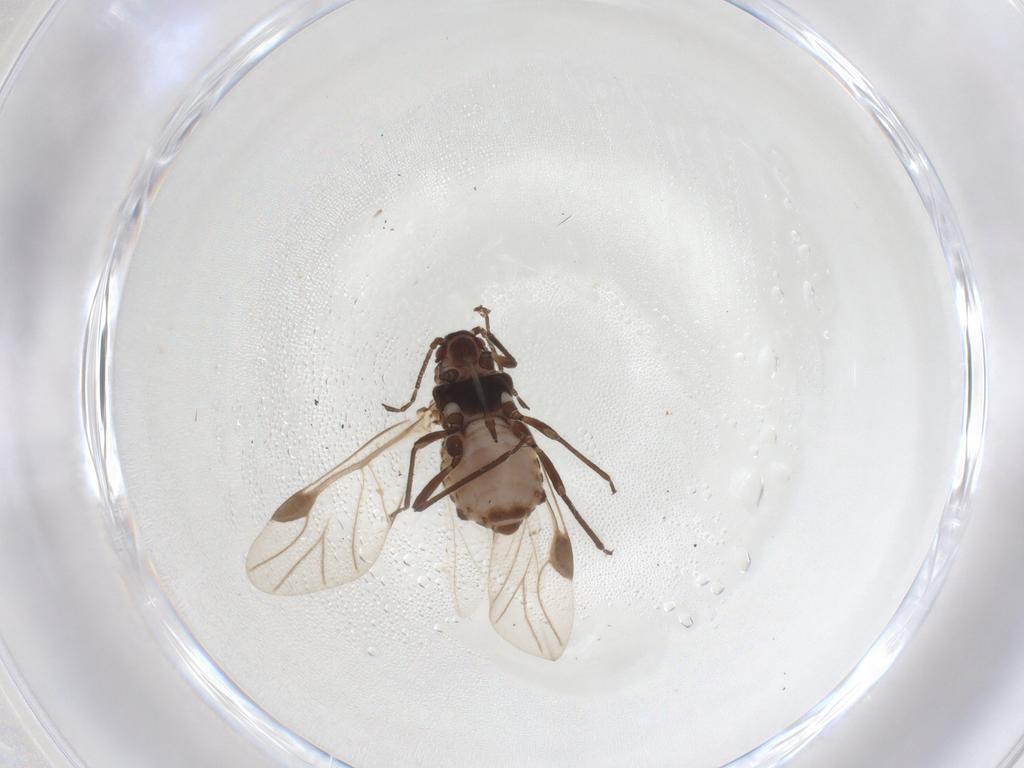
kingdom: Animalia
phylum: Arthropoda
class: Insecta
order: Hemiptera
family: Aphididae
